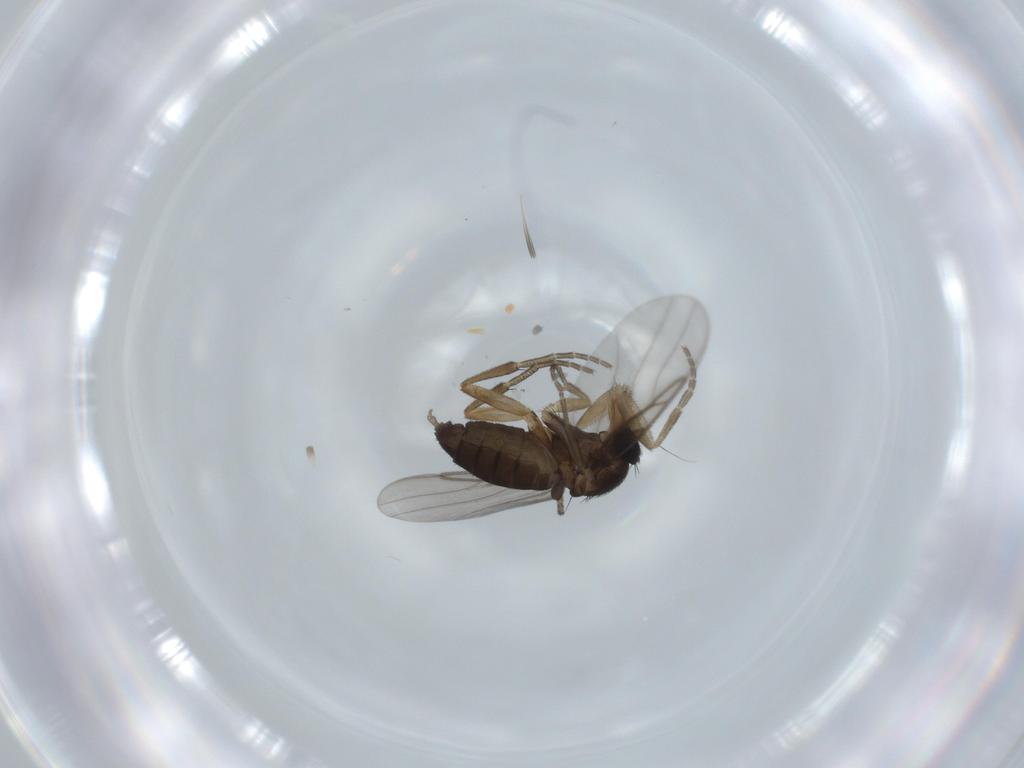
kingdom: Animalia
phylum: Arthropoda
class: Insecta
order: Diptera
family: Phoridae
